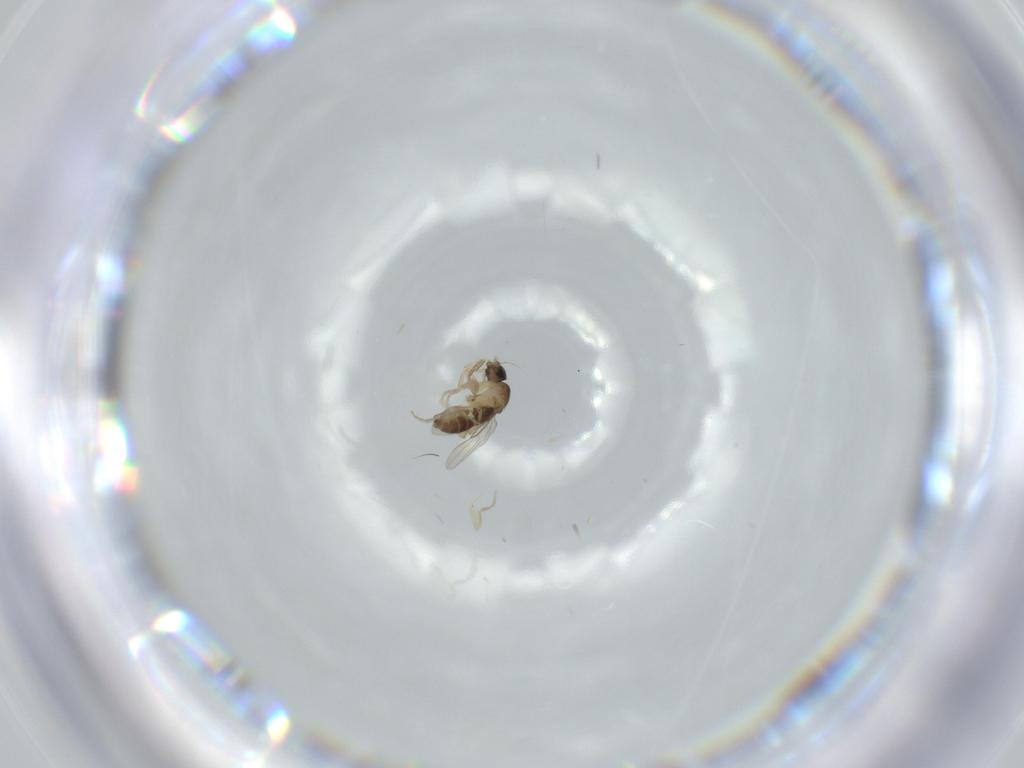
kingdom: Animalia
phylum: Arthropoda
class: Insecta
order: Diptera
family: Phoridae
